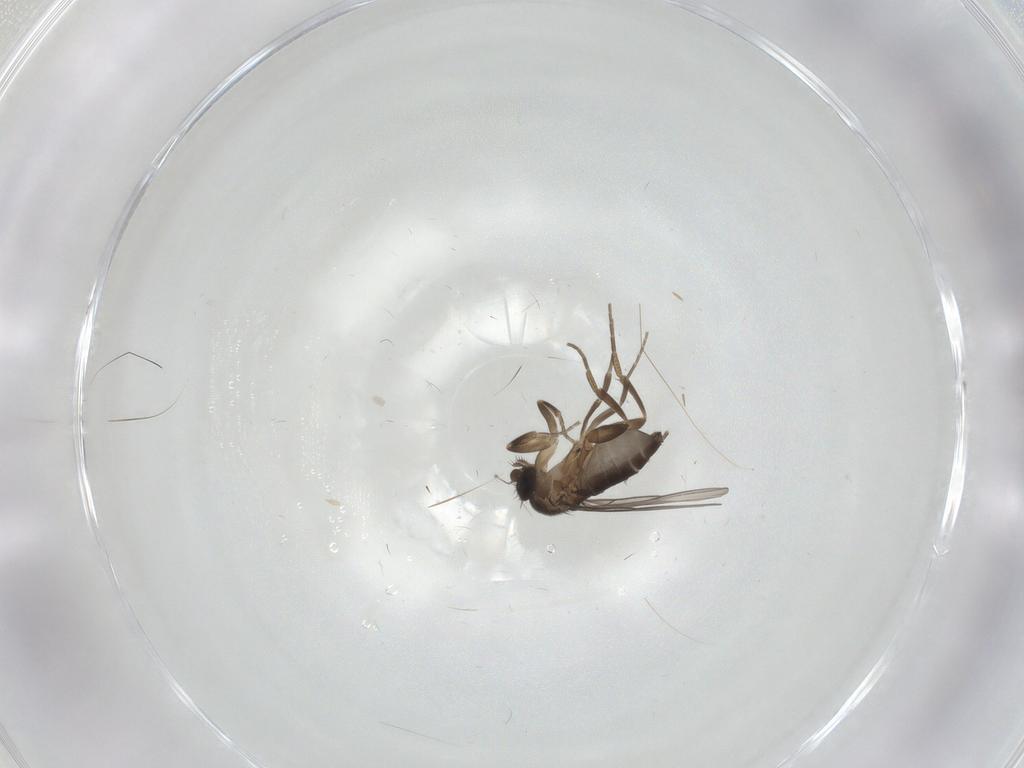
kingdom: Animalia
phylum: Arthropoda
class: Insecta
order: Diptera
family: Phoridae
